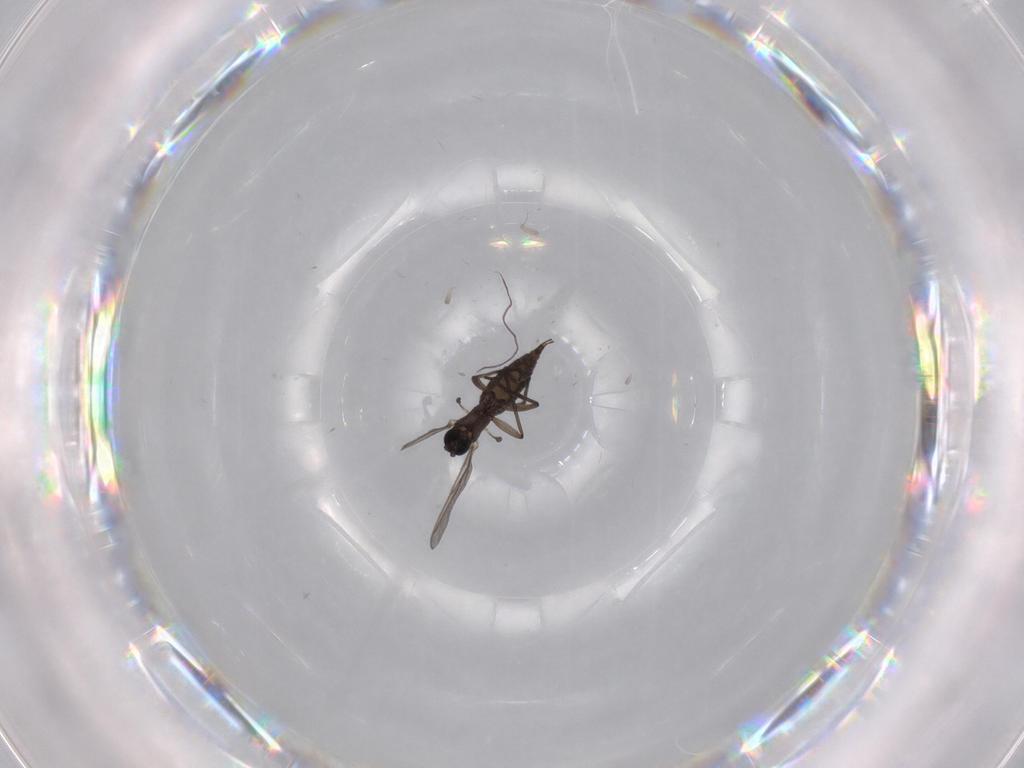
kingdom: Animalia
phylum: Arthropoda
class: Insecta
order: Diptera
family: Sciaridae
